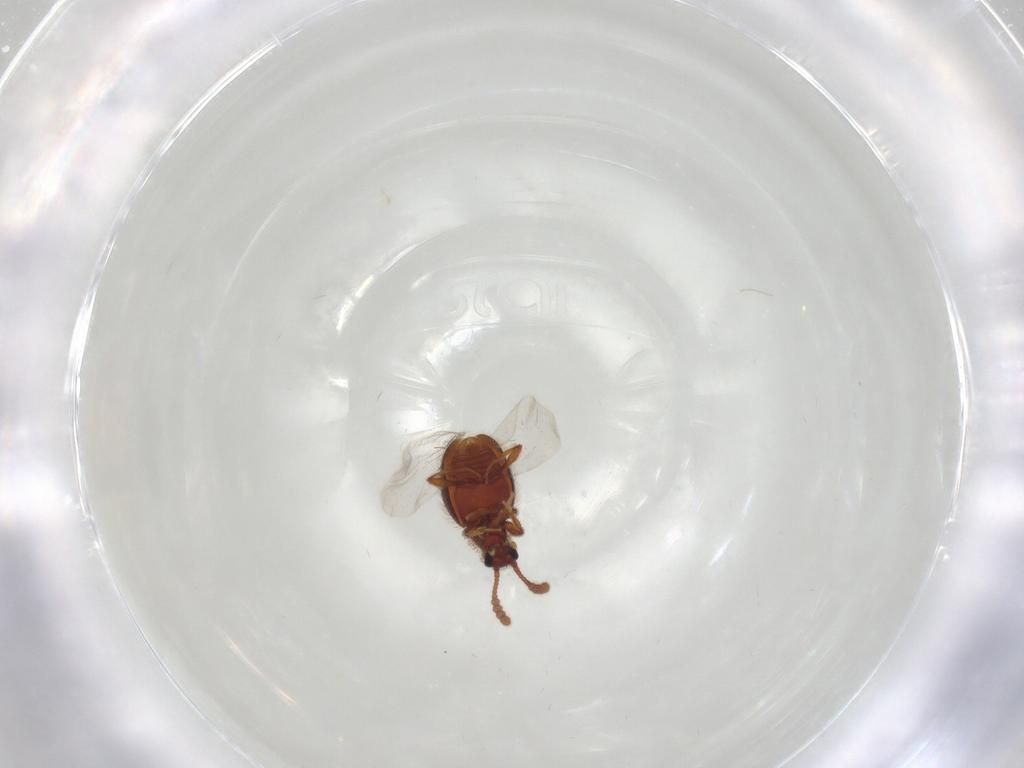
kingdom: Animalia
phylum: Arthropoda
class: Insecta
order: Coleoptera
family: Staphylinidae
